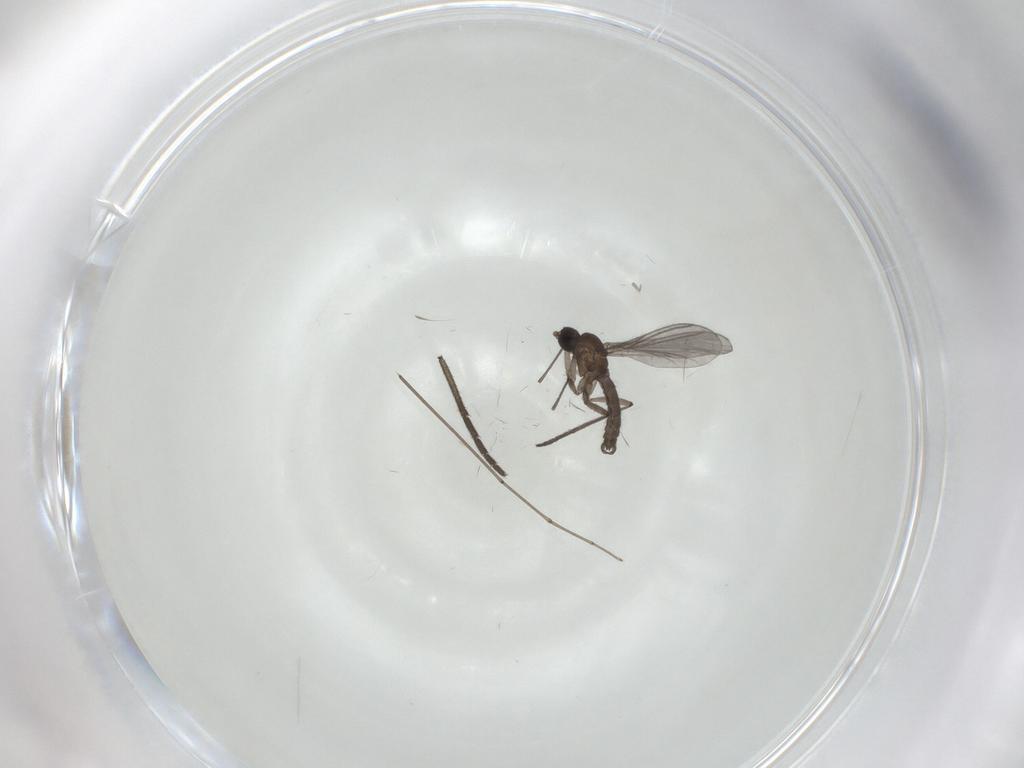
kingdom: Animalia
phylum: Arthropoda
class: Insecta
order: Diptera
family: Cecidomyiidae
